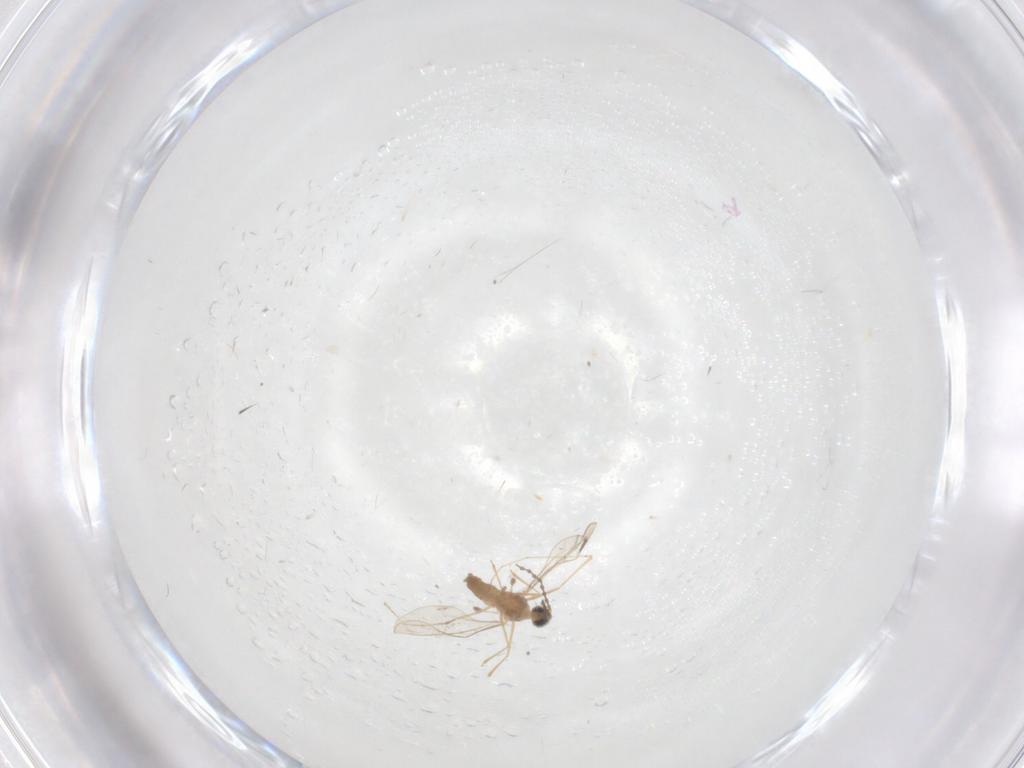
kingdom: Animalia
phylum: Arthropoda
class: Insecta
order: Diptera
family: Cecidomyiidae
